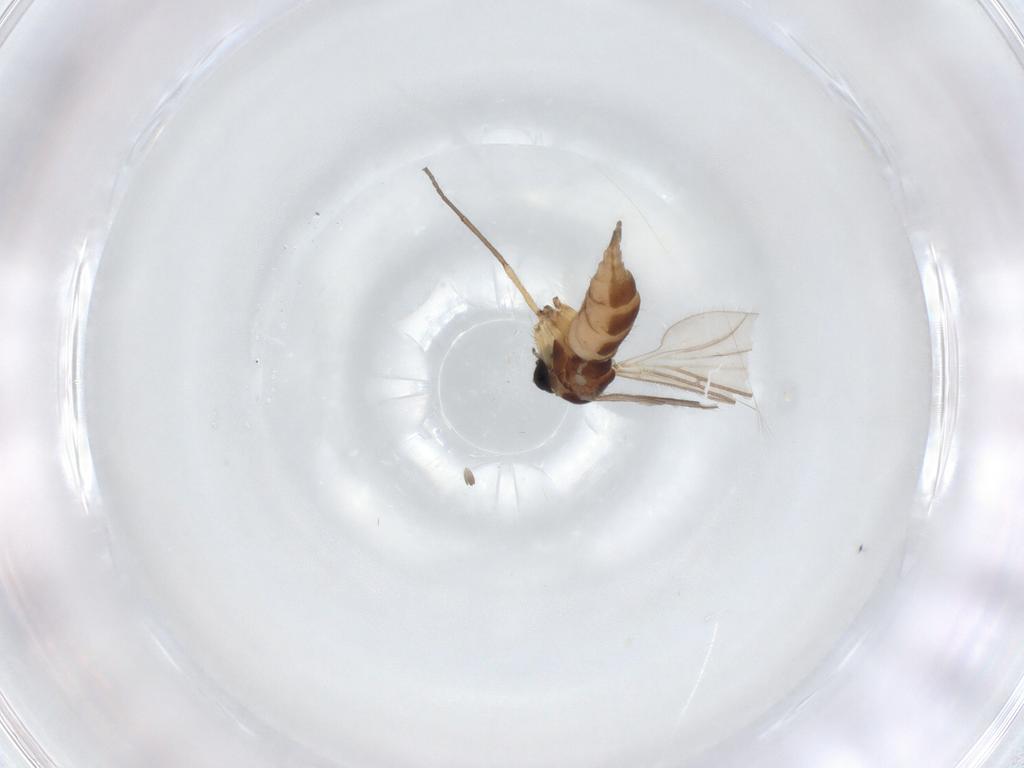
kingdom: Animalia
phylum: Arthropoda
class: Insecta
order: Diptera
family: Sciaridae
